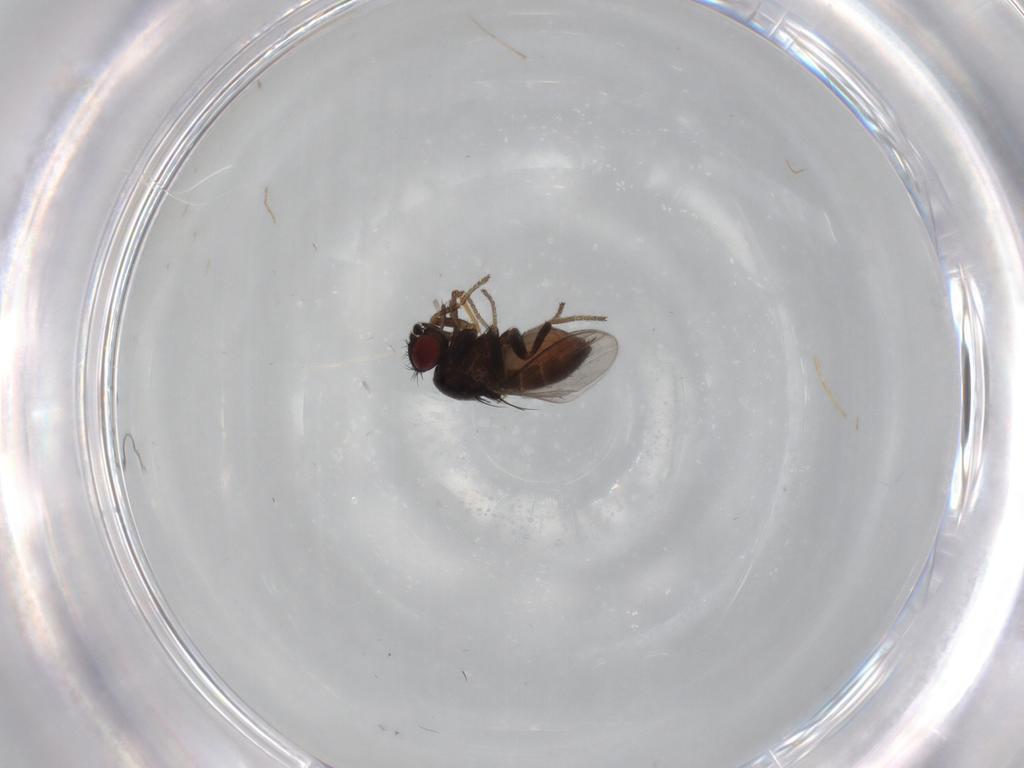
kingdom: Animalia
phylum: Arthropoda
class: Insecta
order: Diptera
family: Milichiidae
